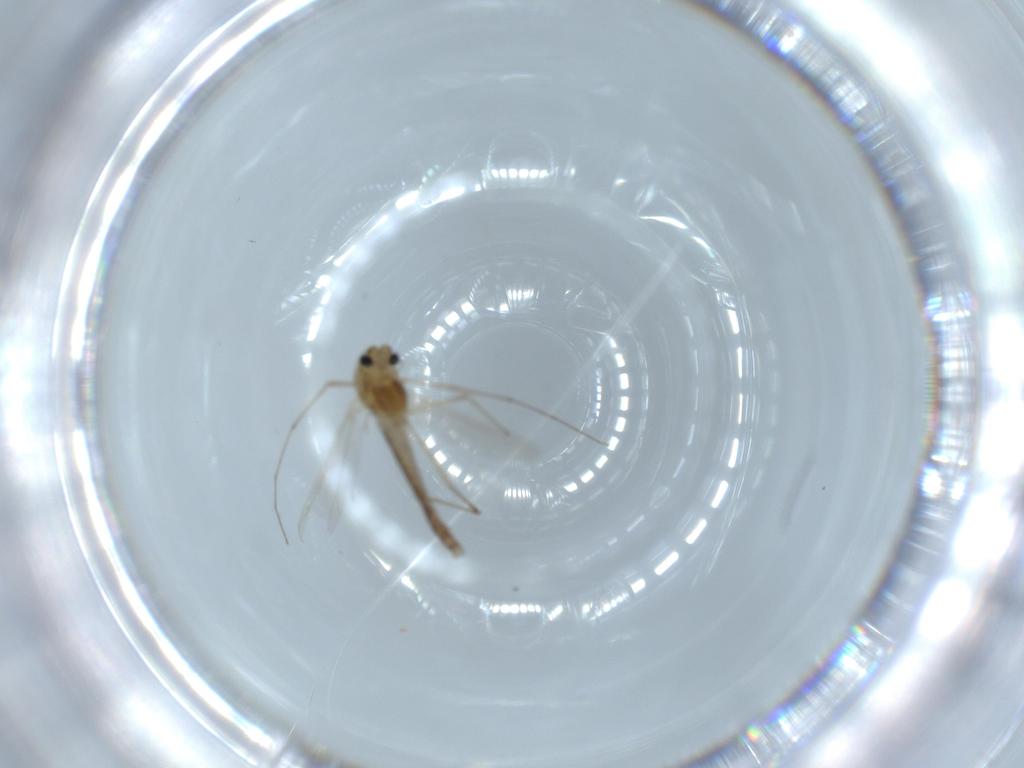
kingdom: Animalia
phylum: Arthropoda
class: Insecta
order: Diptera
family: Chironomidae
